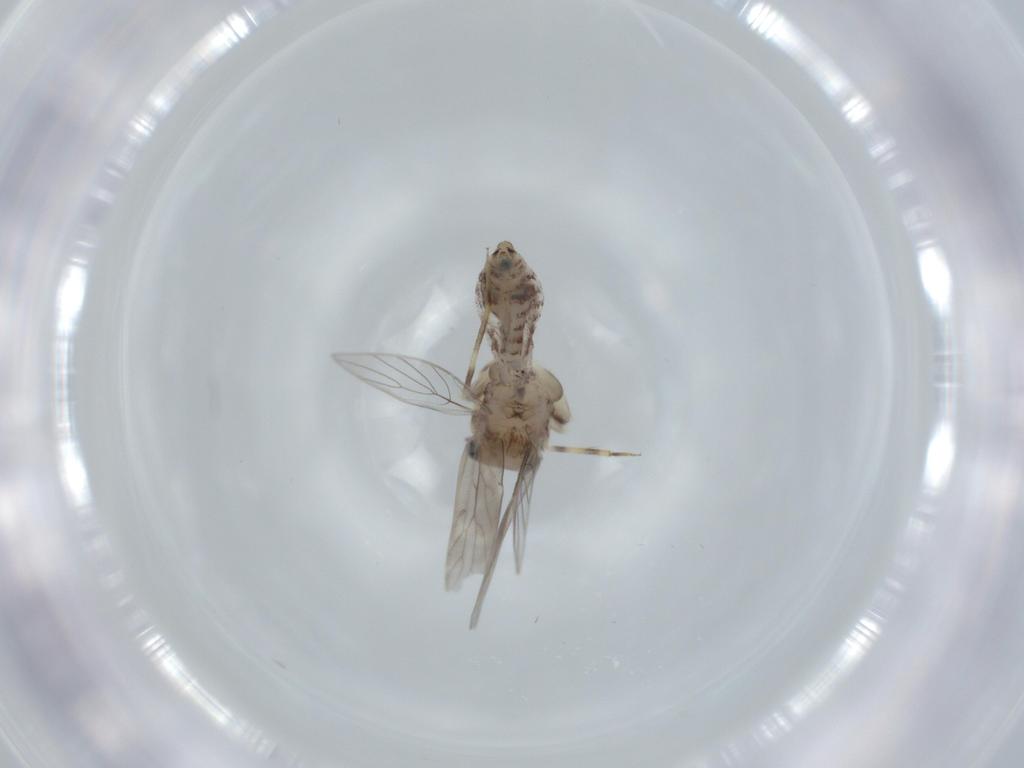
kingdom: Animalia
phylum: Arthropoda
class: Insecta
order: Psocodea
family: Lepidopsocidae
